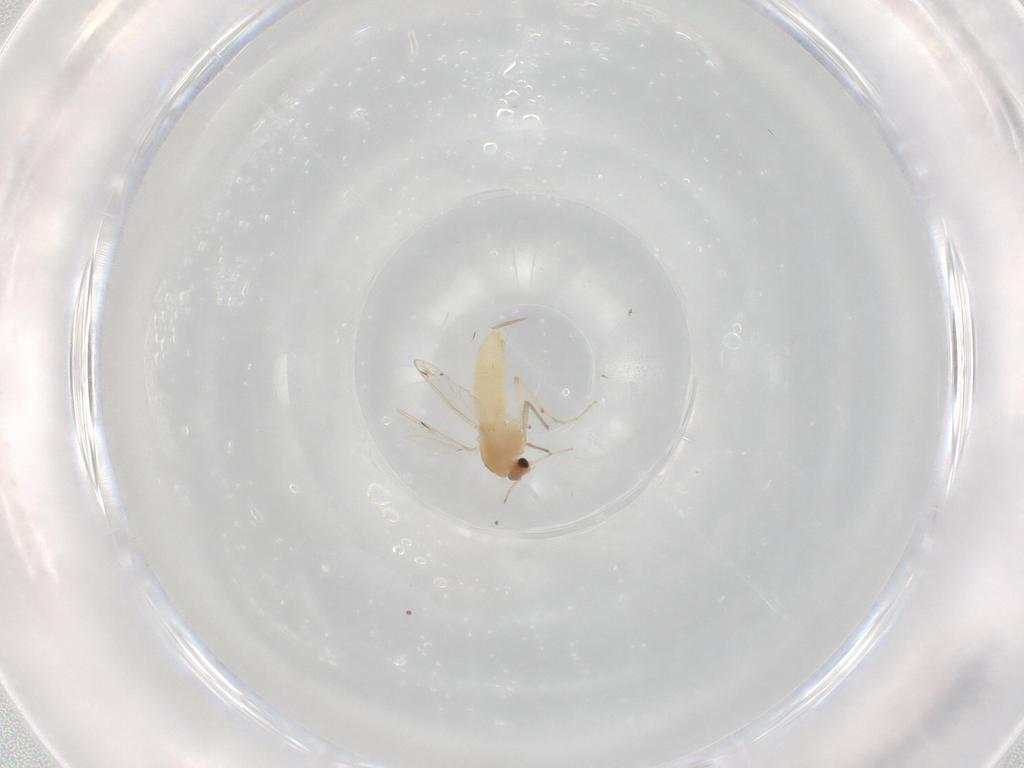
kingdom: Animalia
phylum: Arthropoda
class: Insecta
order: Diptera
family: Chironomidae
